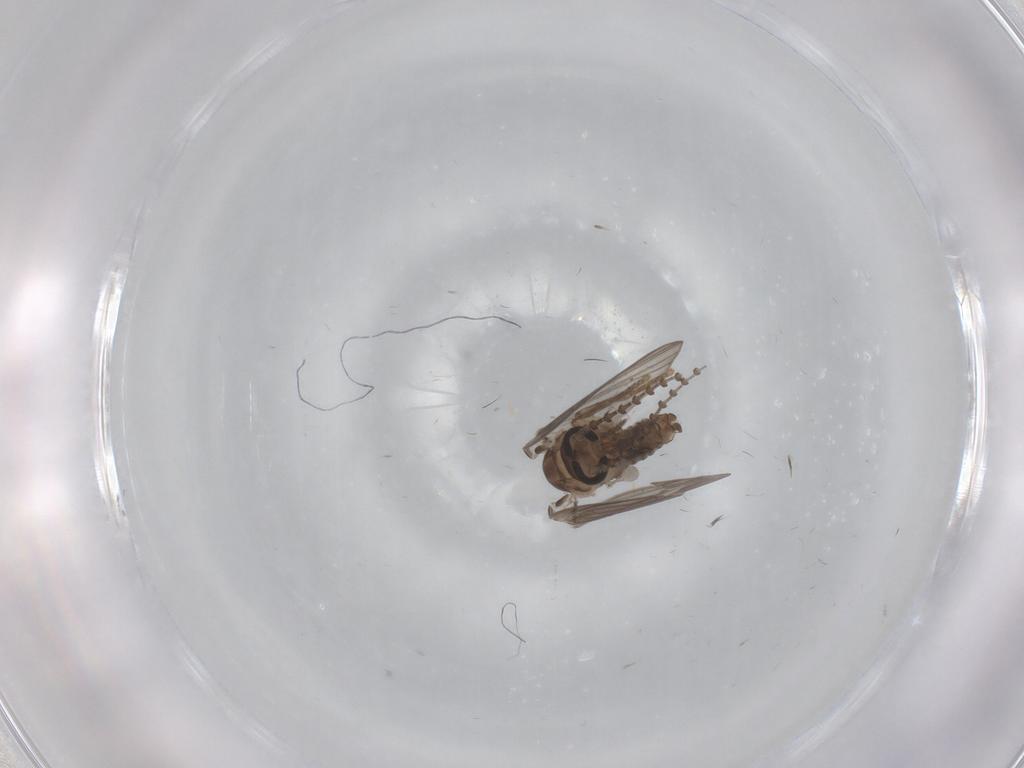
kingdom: Animalia
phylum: Arthropoda
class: Insecta
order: Diptera
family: Psychodidae
